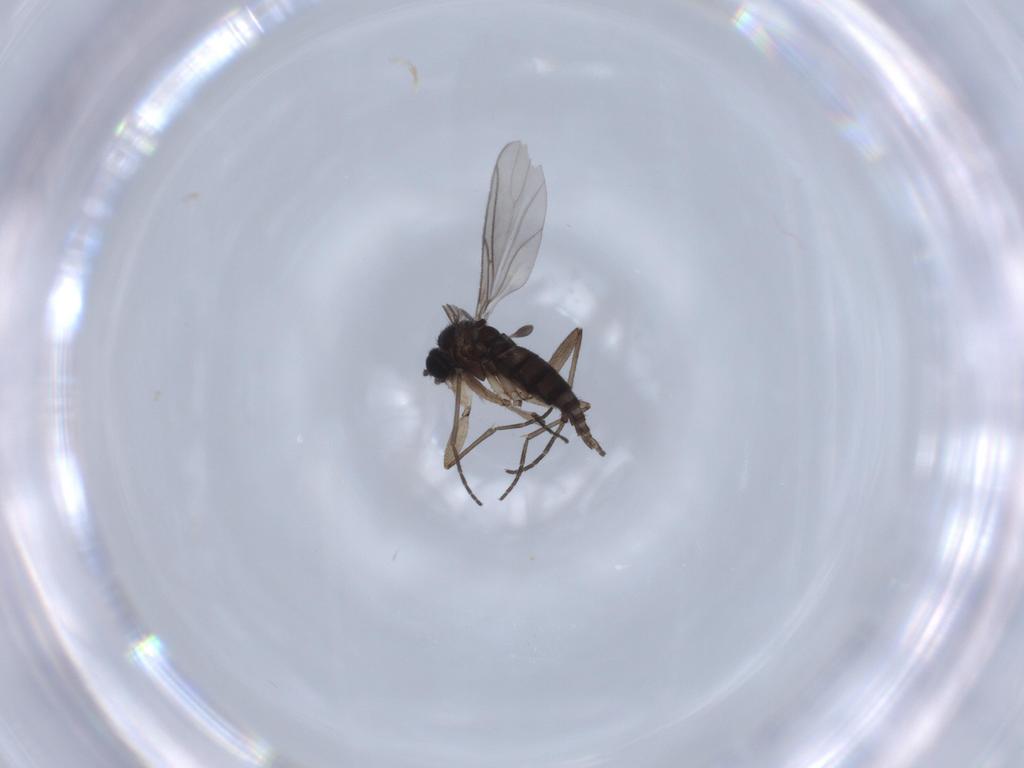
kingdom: Animalia
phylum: Arthropoda
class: Insecta
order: Diptera
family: Sciaridae
